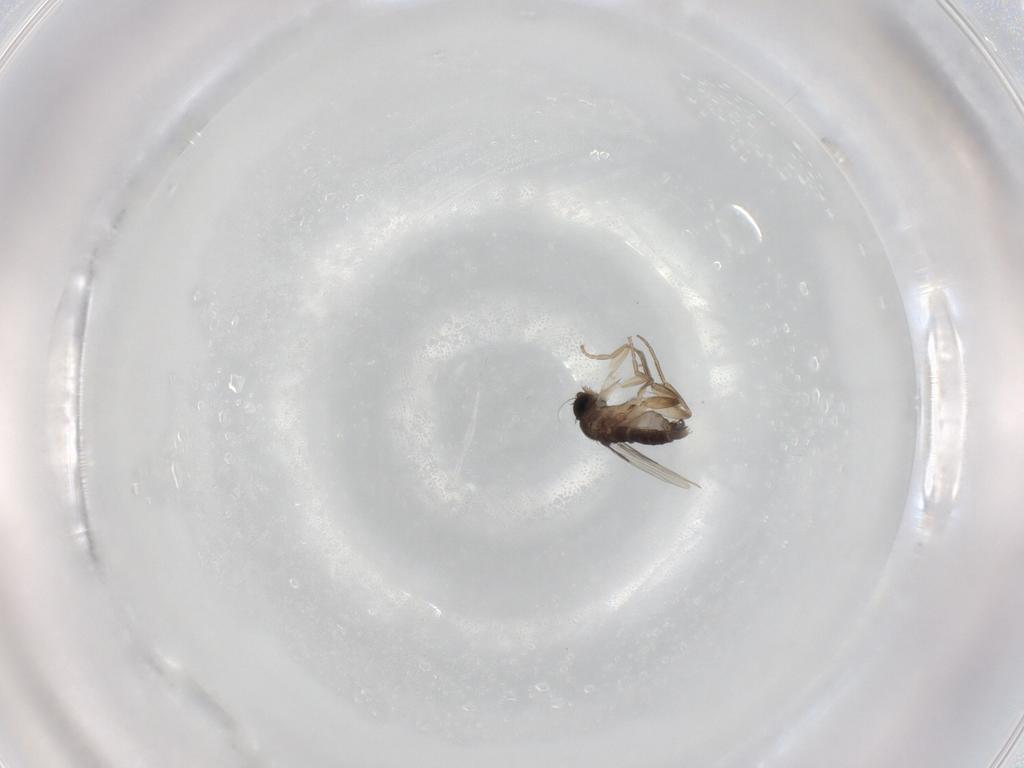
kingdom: Animalia
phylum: Arthropoda
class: Insecta
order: Diptera
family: Phoridae
